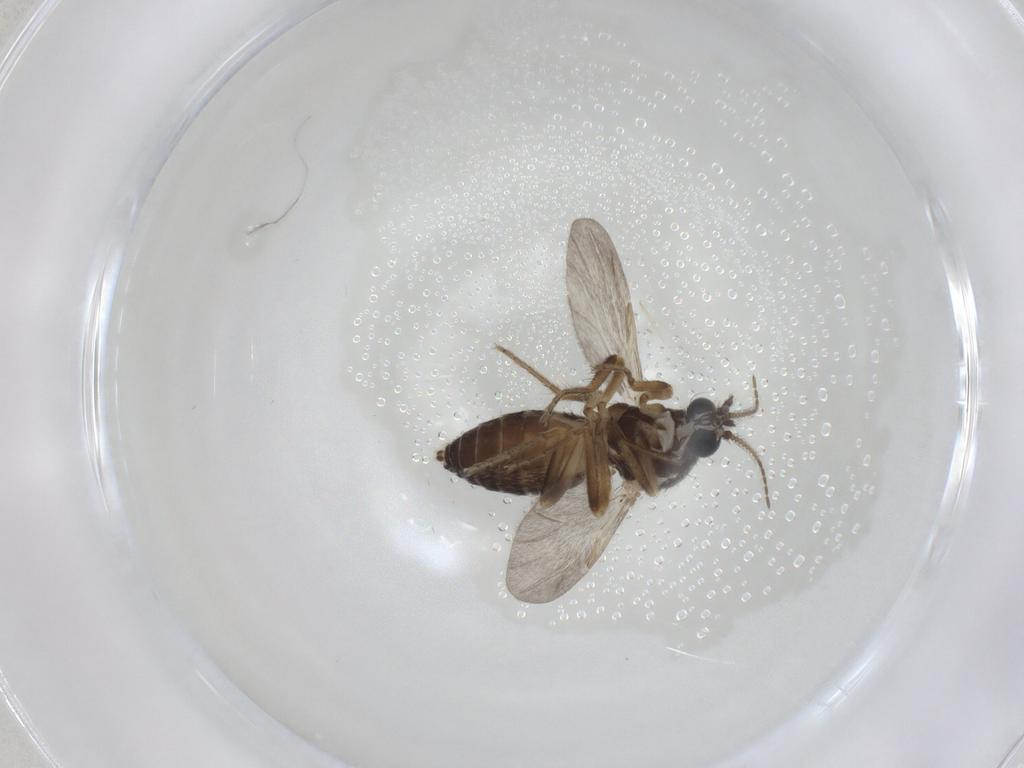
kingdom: Animalia
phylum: Arthropoda
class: Insecta
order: Diptera
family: Ceratopogonidae
